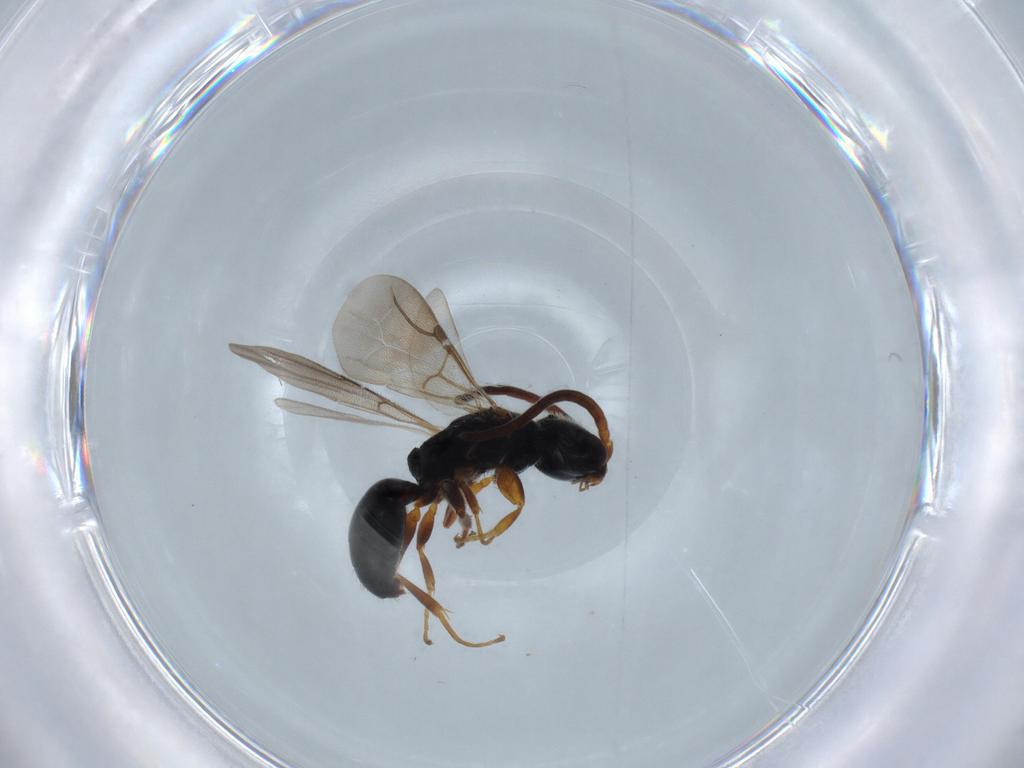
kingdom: Animalia
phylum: Arthropoda
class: Insecta
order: Hymenoptera
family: Bethylidae
